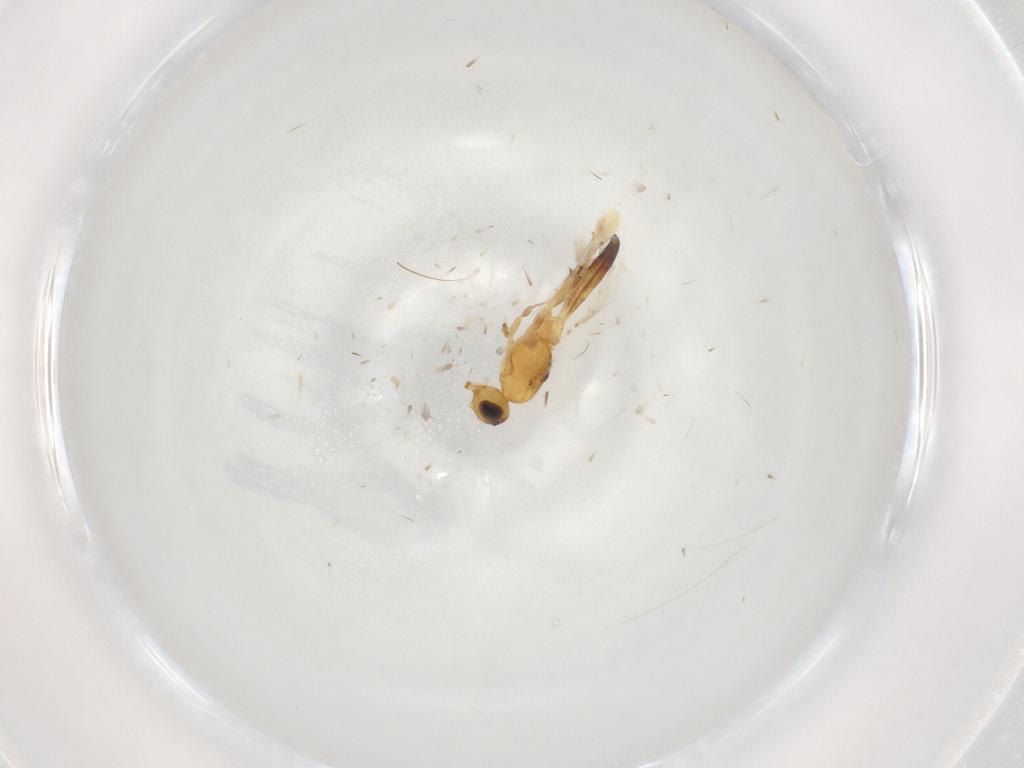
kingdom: Animalia
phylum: Arthropoda
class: Insecta
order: Hymenoptera
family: Scelionidae
